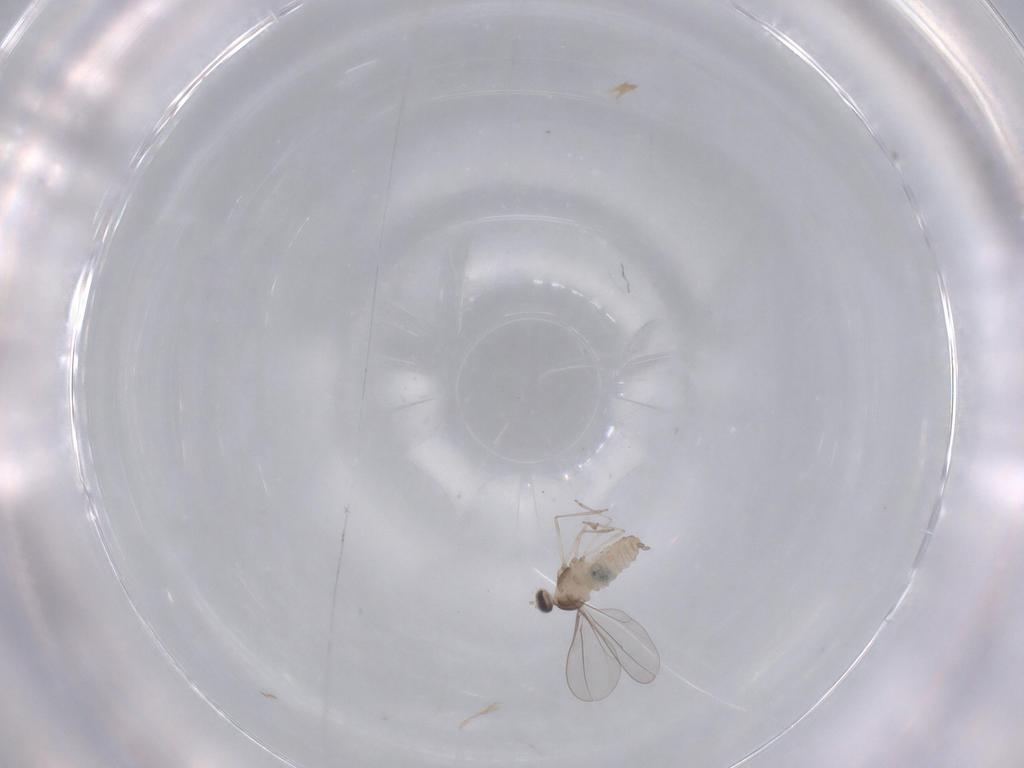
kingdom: Animalia
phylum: Arthropoda
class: Insecta
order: Diptera
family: Cecidomyiidae
